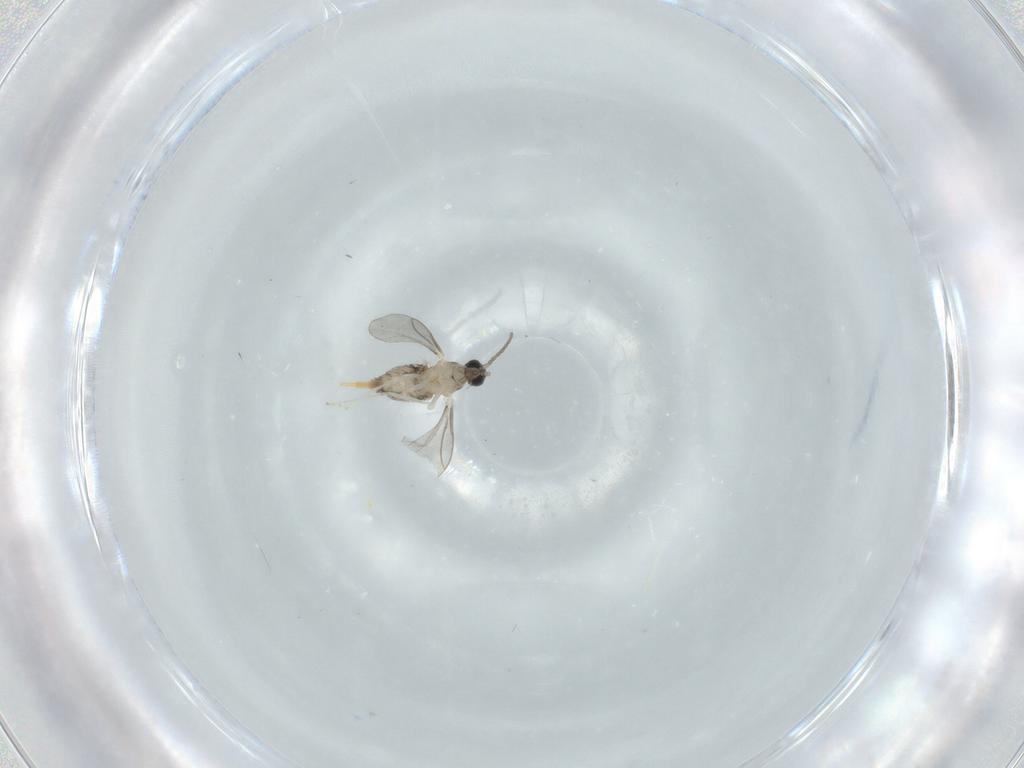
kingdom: Animalia
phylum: Arthropoda
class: Insecta
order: Diptera
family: Cecidomyiidae
